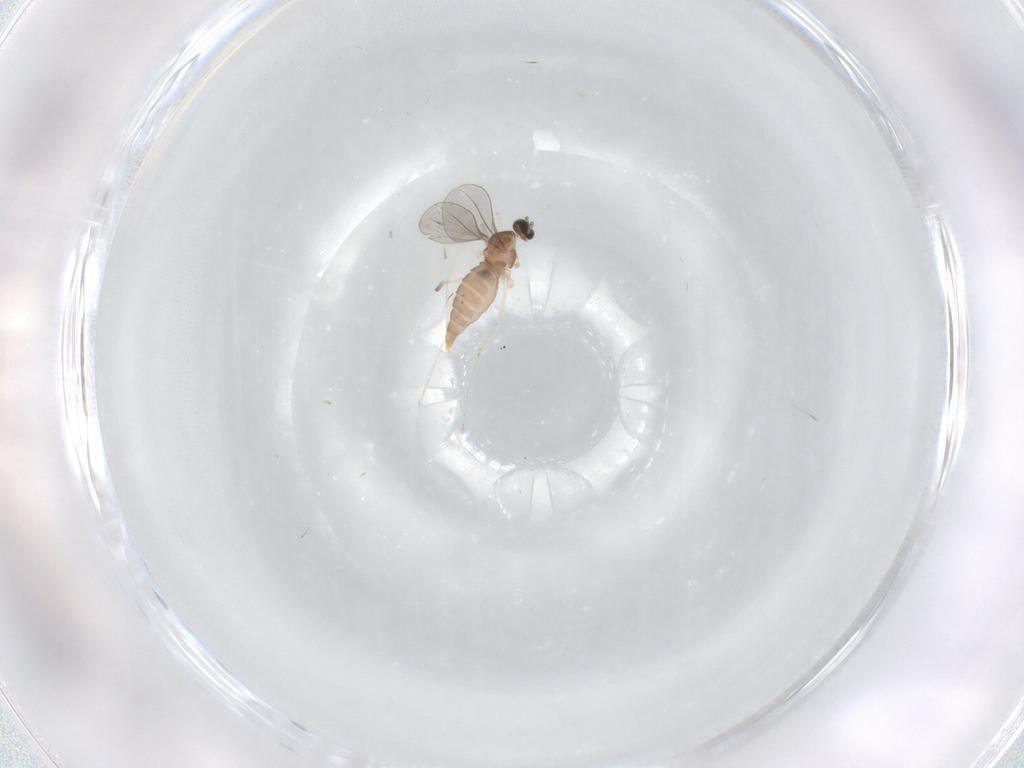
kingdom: Animalia
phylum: Arthropoda
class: Insecta
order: Diptera
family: Cecidomyiidae
